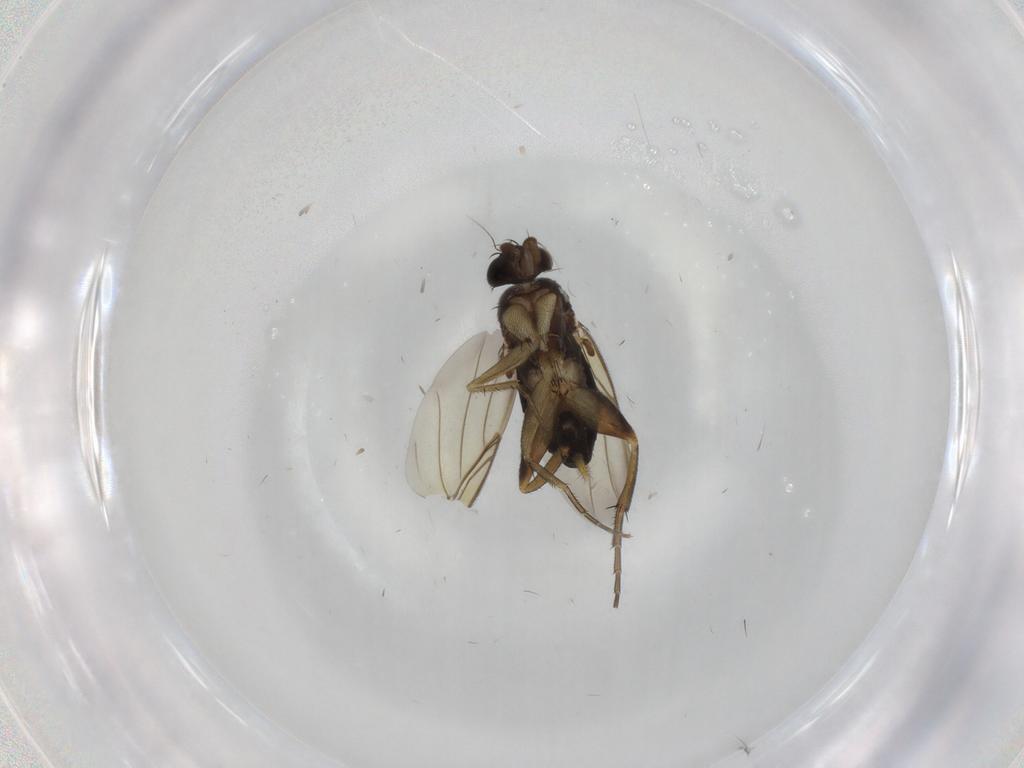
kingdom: Animalia
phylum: Arthropoda
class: Insecta
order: Diptera
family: Phoridae
